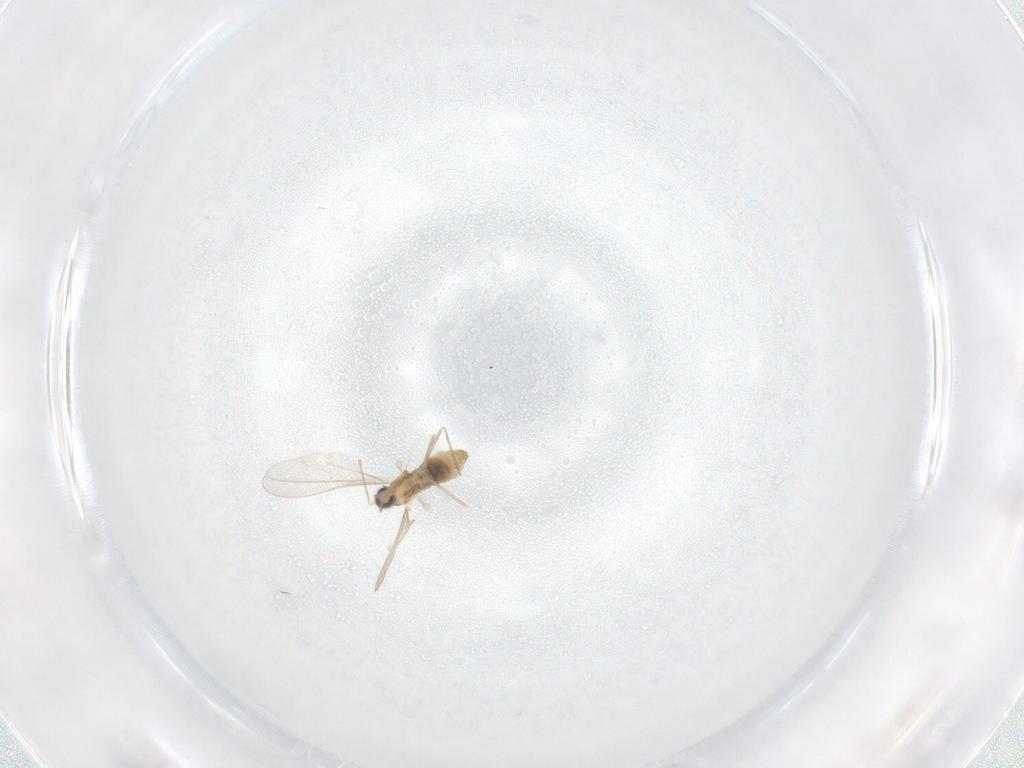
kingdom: Animalia
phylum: Arthropoda
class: Insecta
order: Diptera
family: Cecidomyiidae
